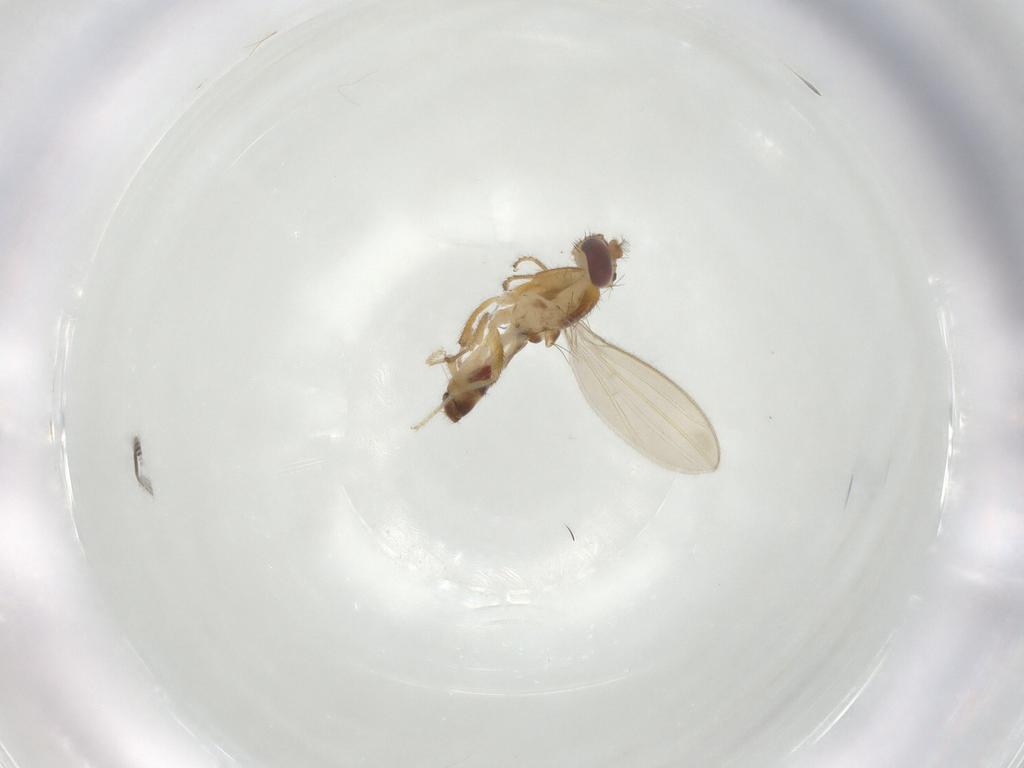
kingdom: Animalia
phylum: Arthropoda
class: Insecta
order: Diptera
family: Periscelididae
